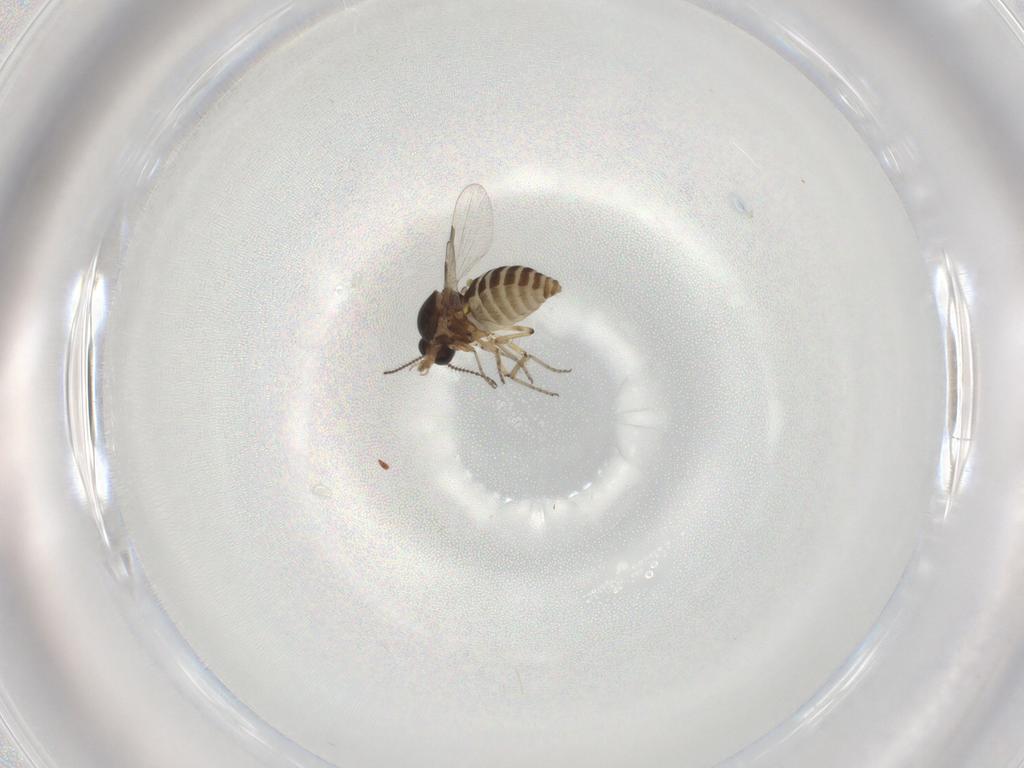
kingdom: Animalia
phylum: Arthropoda
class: Insecta
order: Diptera
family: Ceratopogonidae
